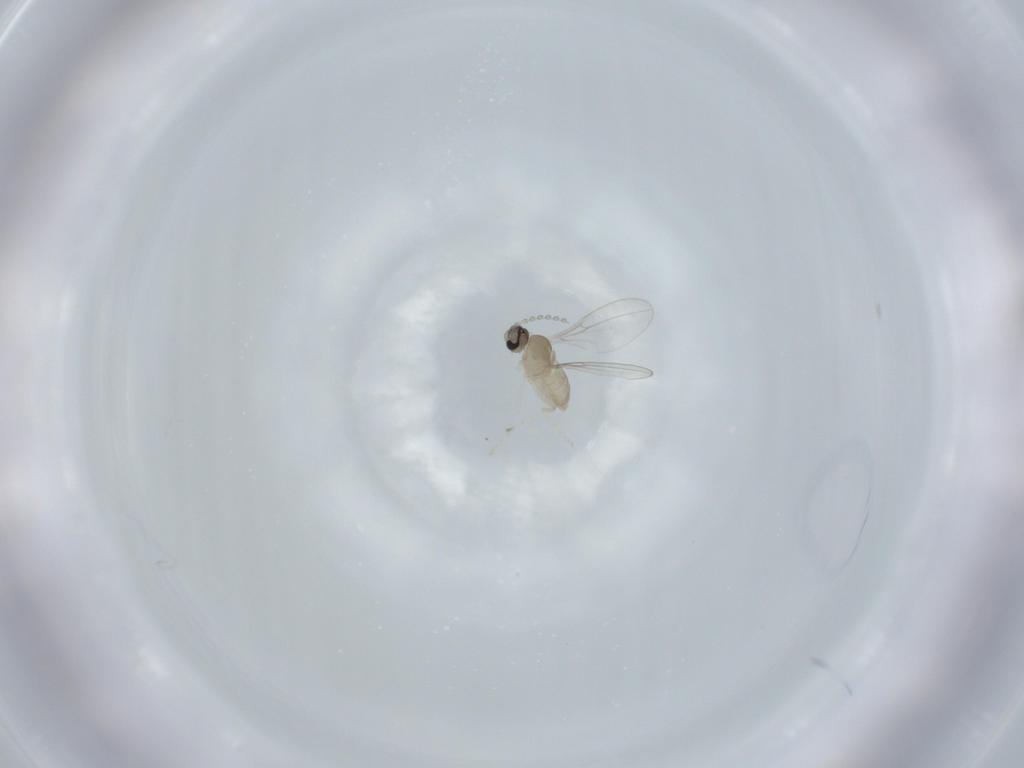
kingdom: Animalia
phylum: Arthropoda
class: Insecta
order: Diptera
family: Cecidomyiidae
